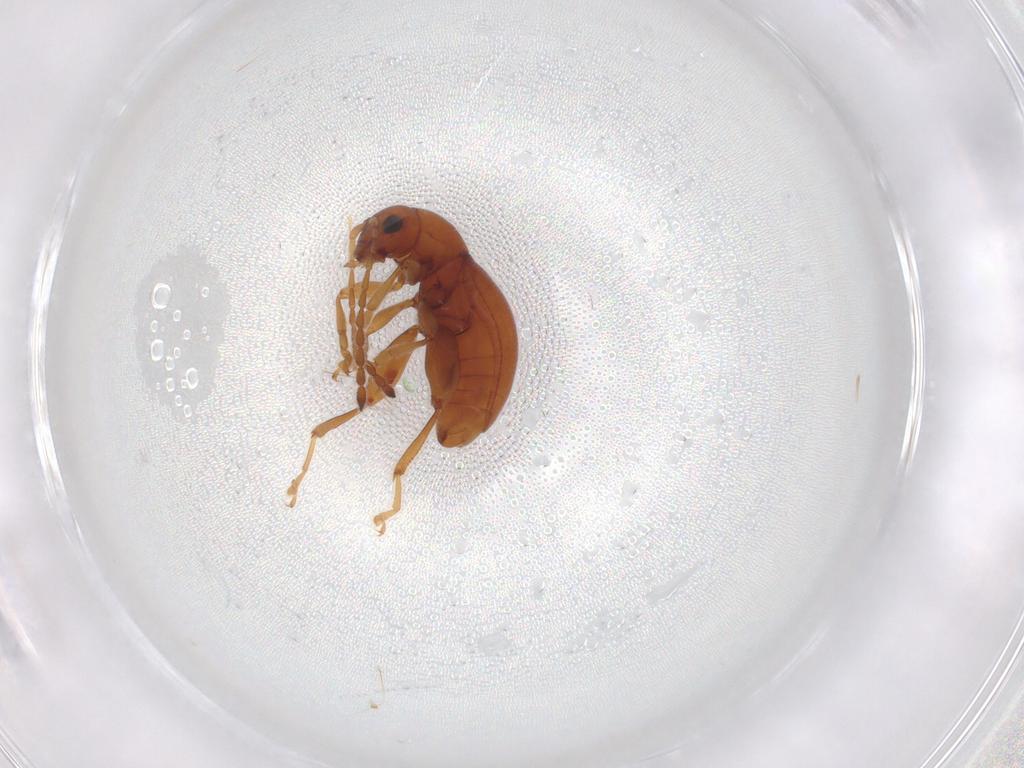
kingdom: Animalia
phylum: Arthropoda
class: Insecta
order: Coleoptera
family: Chrysomelidae
